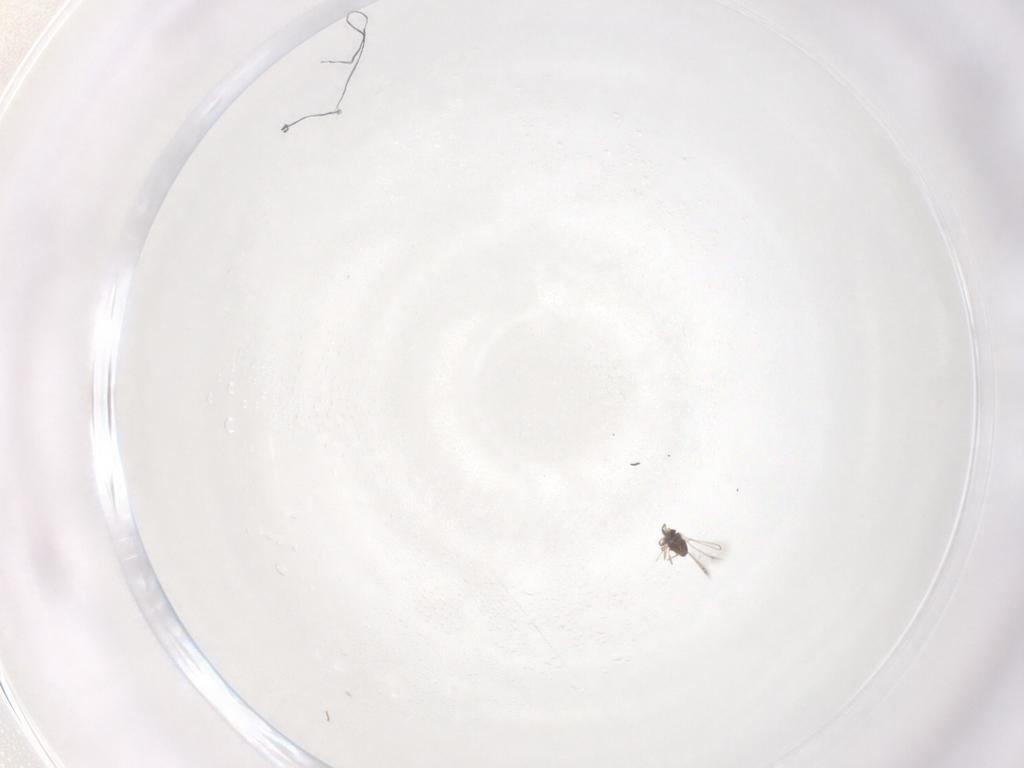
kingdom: Animalia
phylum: Arthropoda
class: Insecta
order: Hymenoptera
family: Mymaridae
